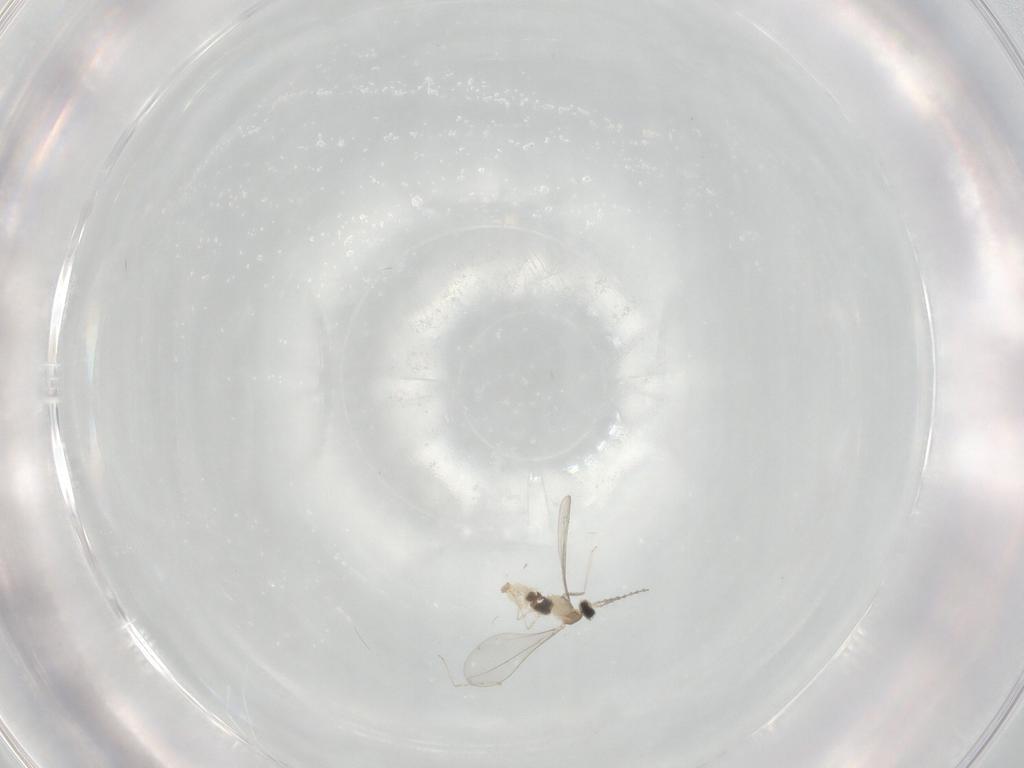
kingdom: Animalia
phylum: Arthropoda
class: Insecta
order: Diptera
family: Cecidomyiidae
